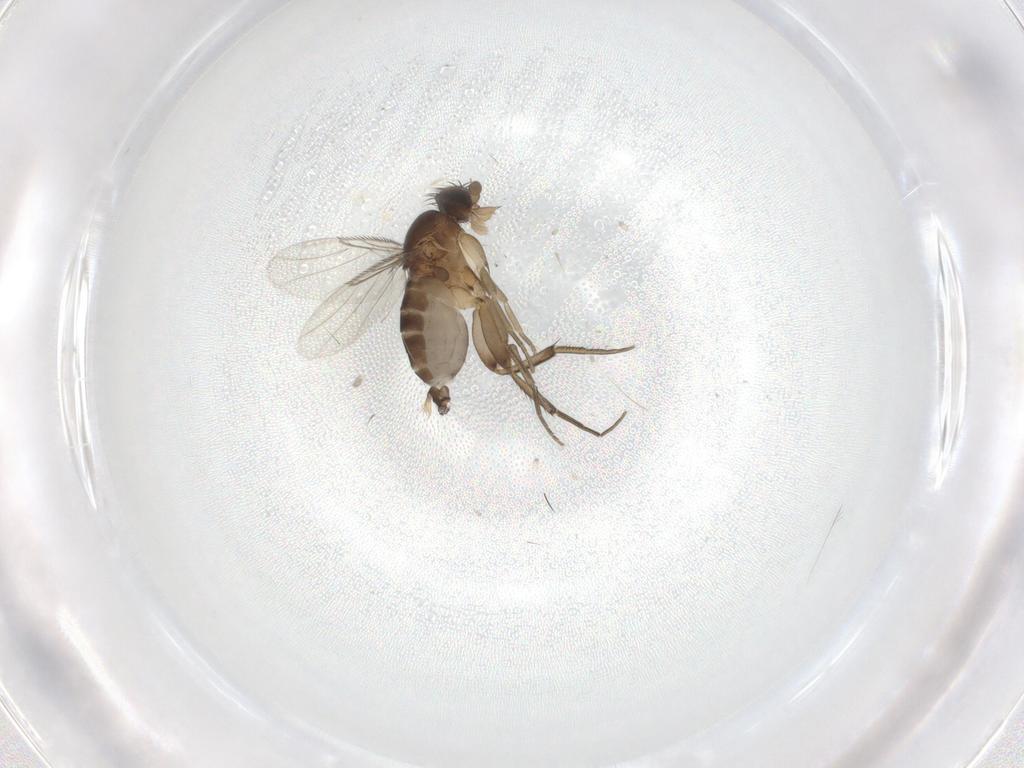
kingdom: Animalia
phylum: Arthropoda
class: Insecta
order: Diptera
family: Phoridae
